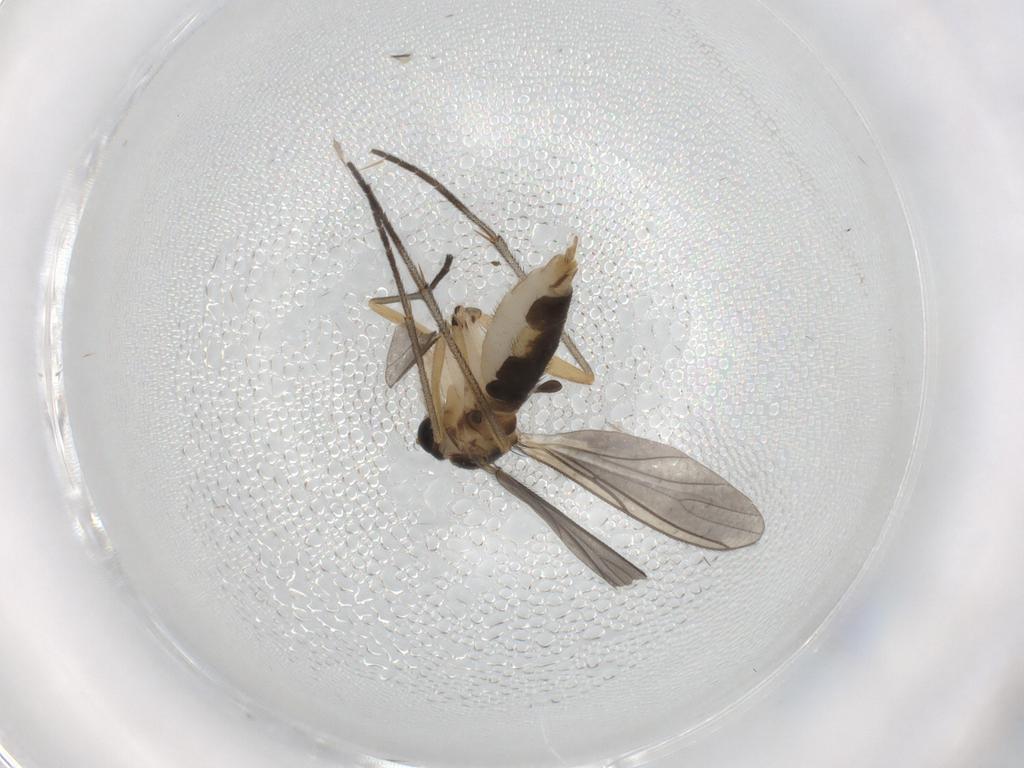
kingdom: Animalia
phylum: Arthropoda
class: Insecta
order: Diptera
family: Sciaridae
